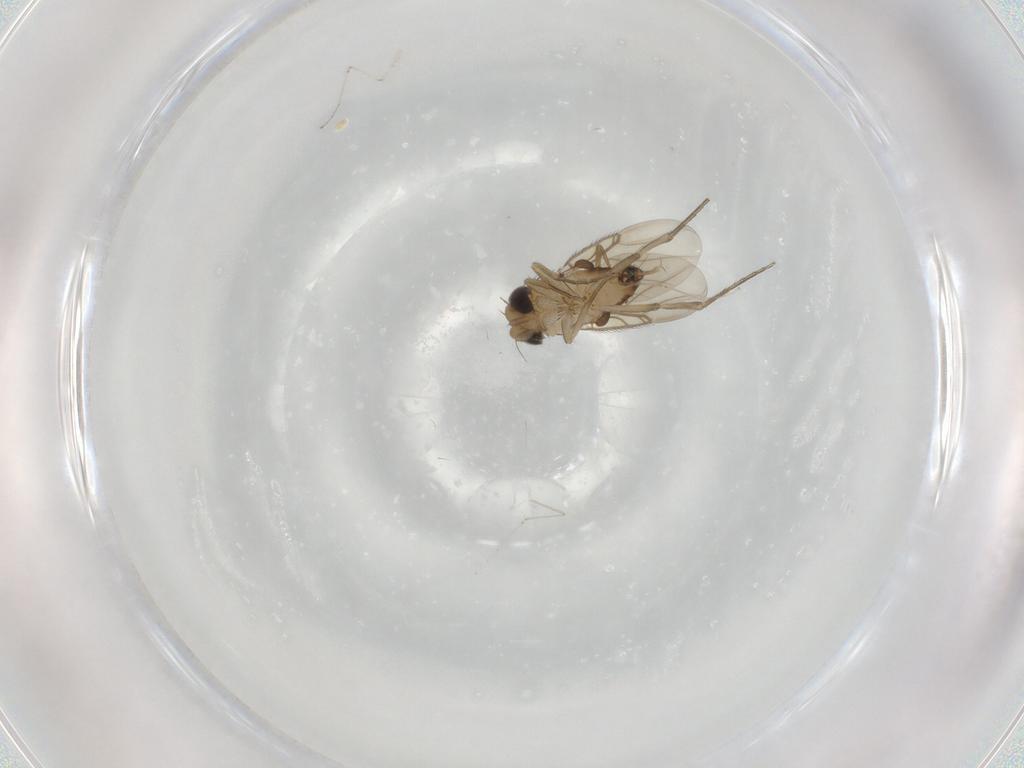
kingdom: Animalia
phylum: Arthropoda
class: Insecta
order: Diptera
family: Phoridae
